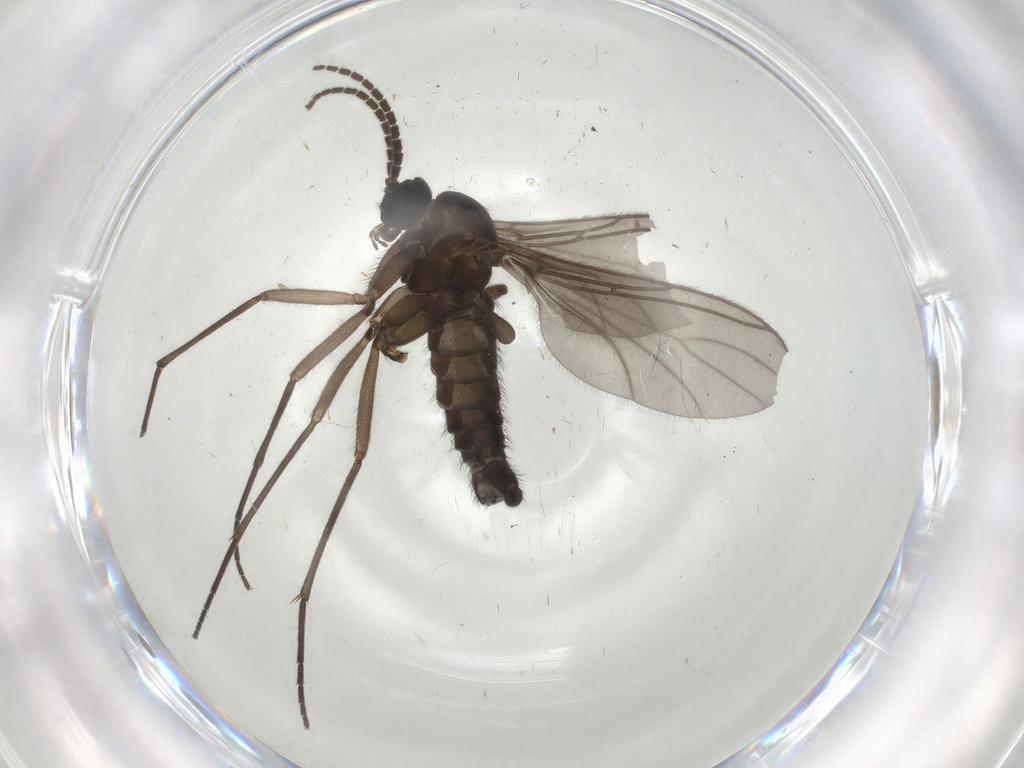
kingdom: Animalia
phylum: Arthropoda
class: Insecta
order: Diptera
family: Sciaridae
